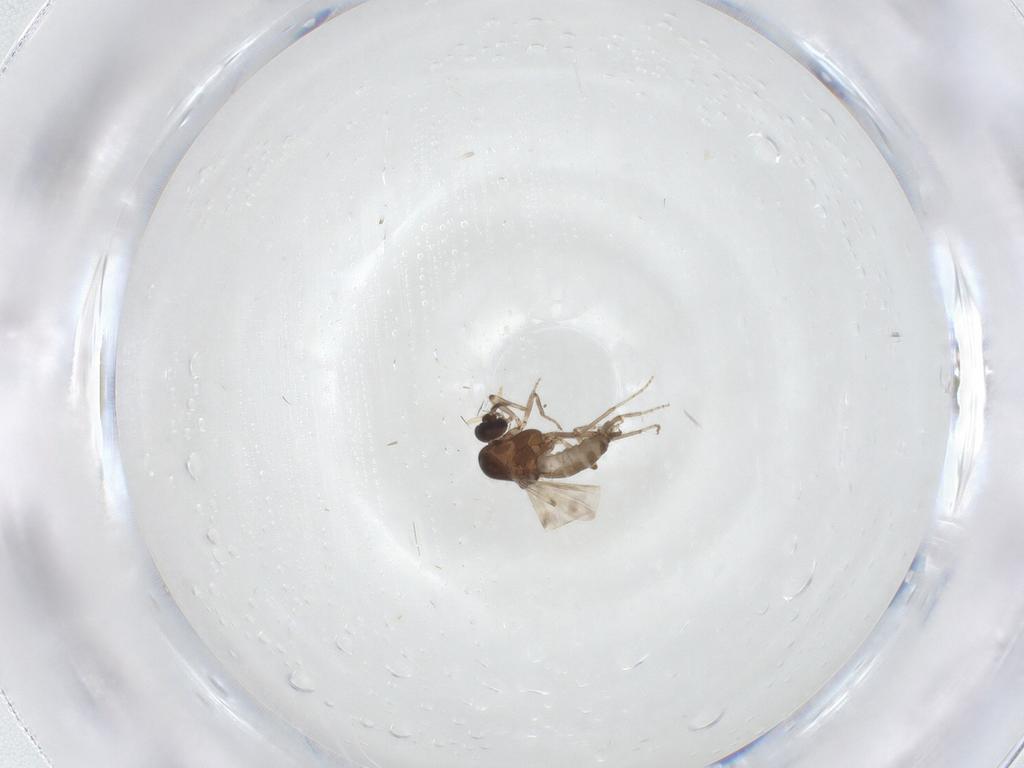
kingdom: Animalia
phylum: Arthropoda
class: Insecta
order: Diptera
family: Ceratopogonidae
